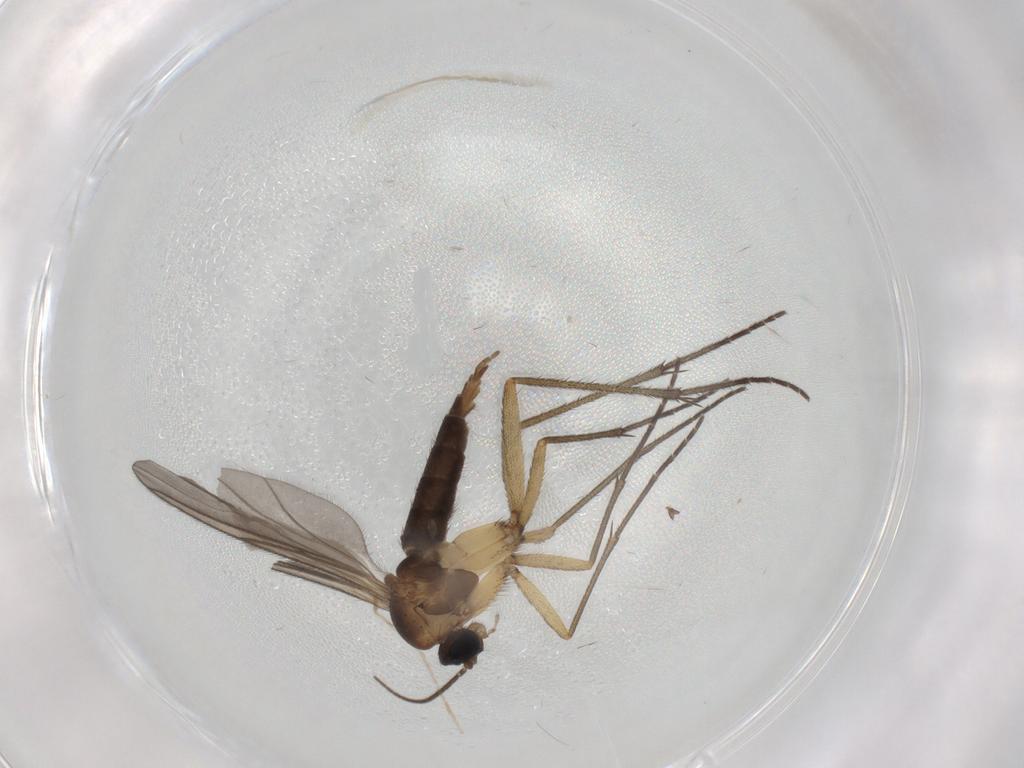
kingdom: Animalia
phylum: Arthropoda
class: Insecta
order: Diptera
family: Sciaridae
